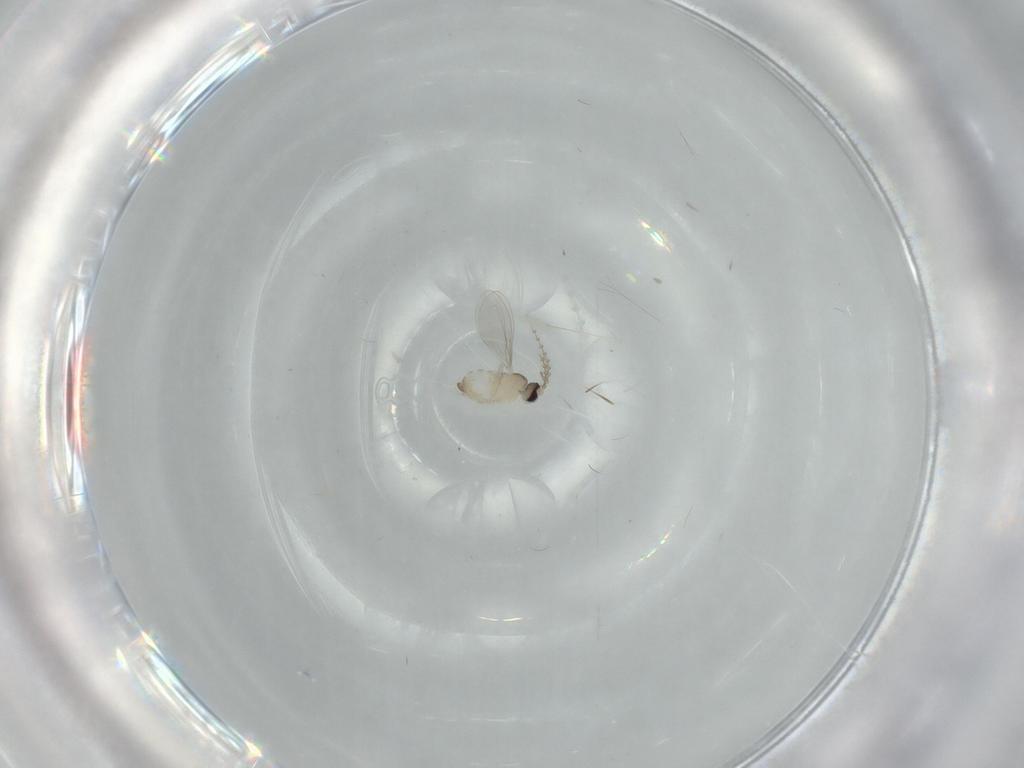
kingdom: Animalia
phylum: Arthropoda
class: Insecta
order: Diptera
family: Cecidomyiidae
